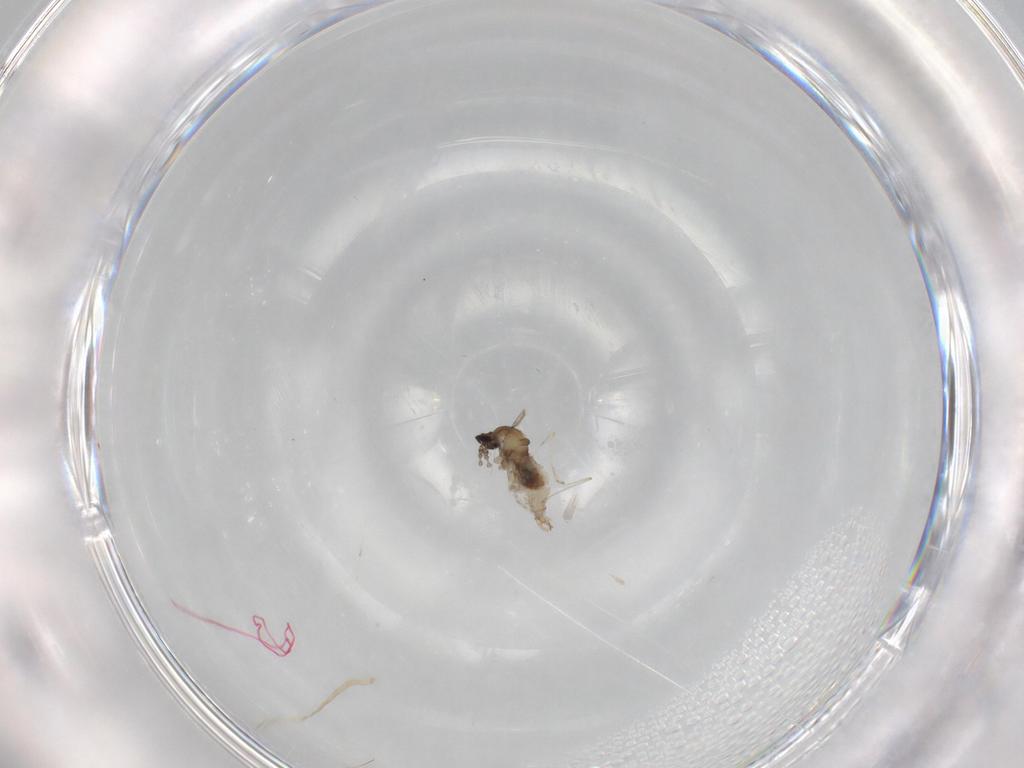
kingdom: Animalia
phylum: Arthropoda
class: Insecta
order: Diptera
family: Cecidomyiidae
